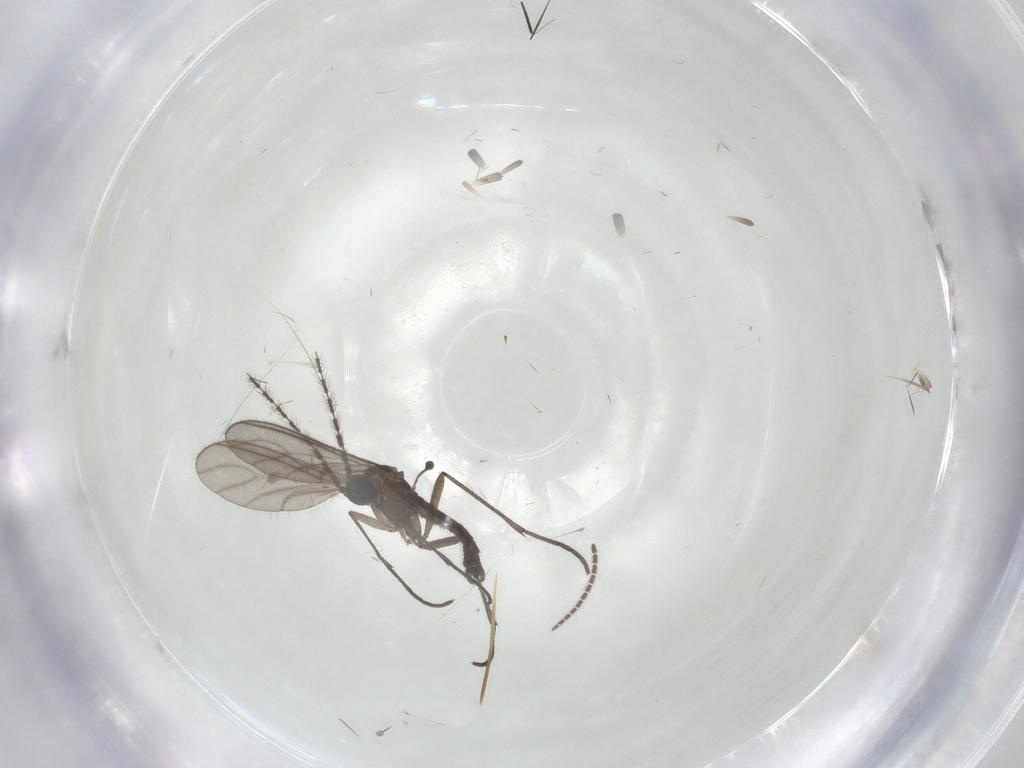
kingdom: Animalia
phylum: Arthropoda
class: Insecta
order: Diptera
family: Sciaridae
